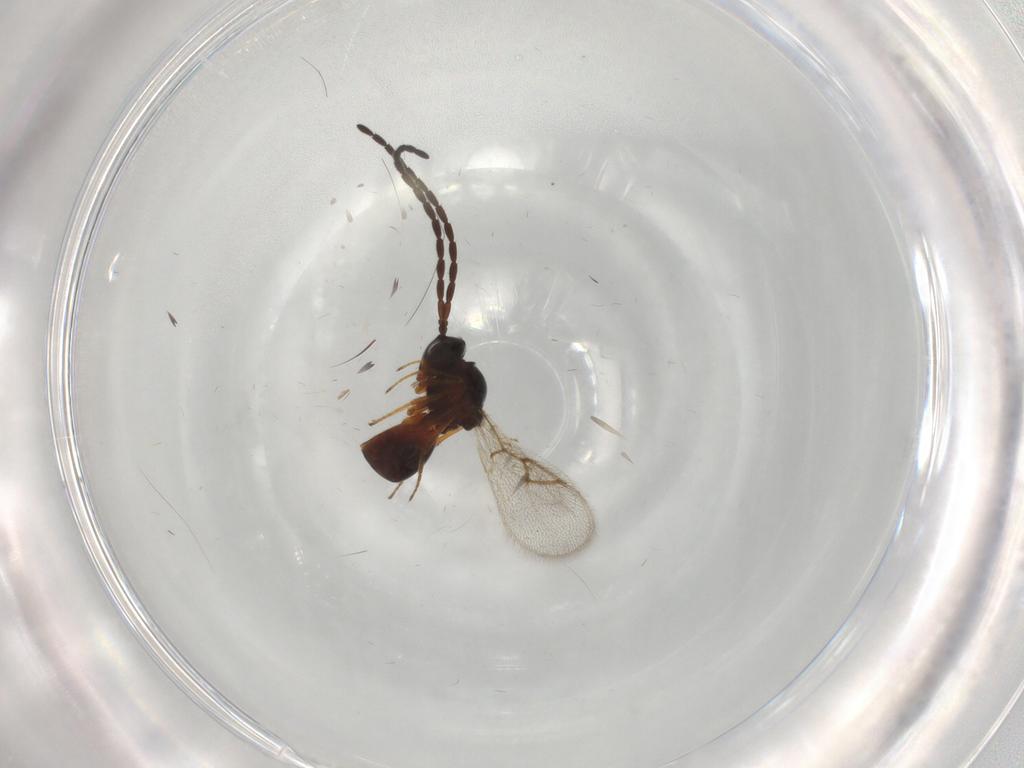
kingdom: Animalia
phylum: Arthropoda
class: Insecta
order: Hymenoptera
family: Figitidae
